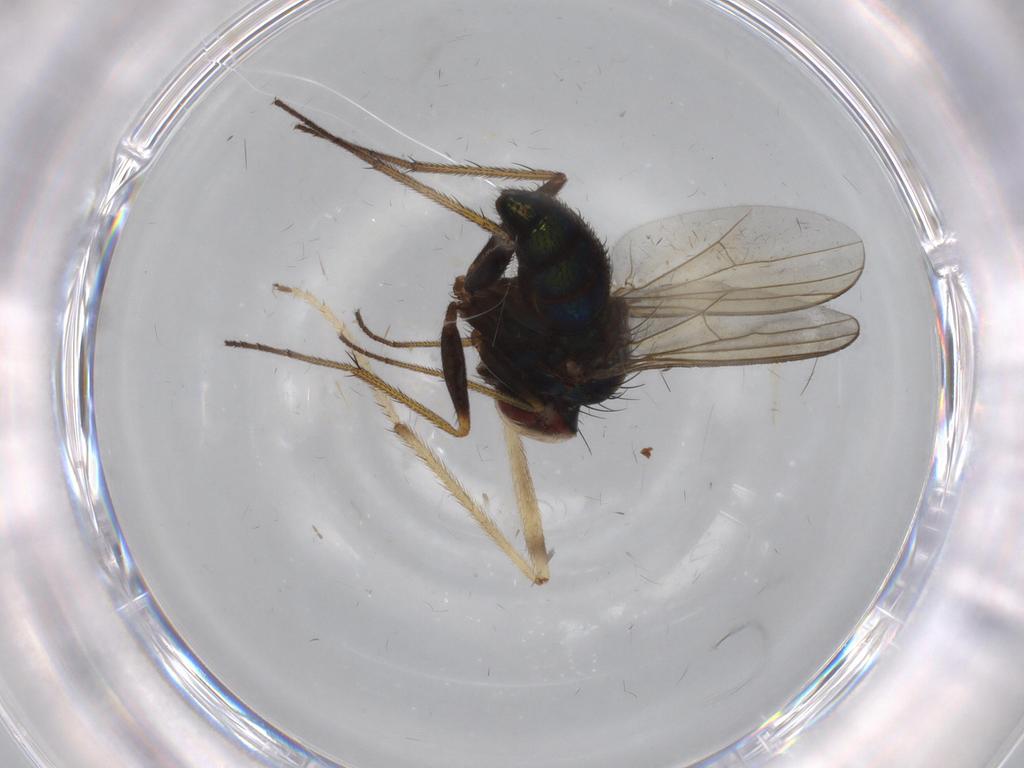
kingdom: Animalia
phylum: Arthropoda
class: Insecta
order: Diptera
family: Dolichopodidae
